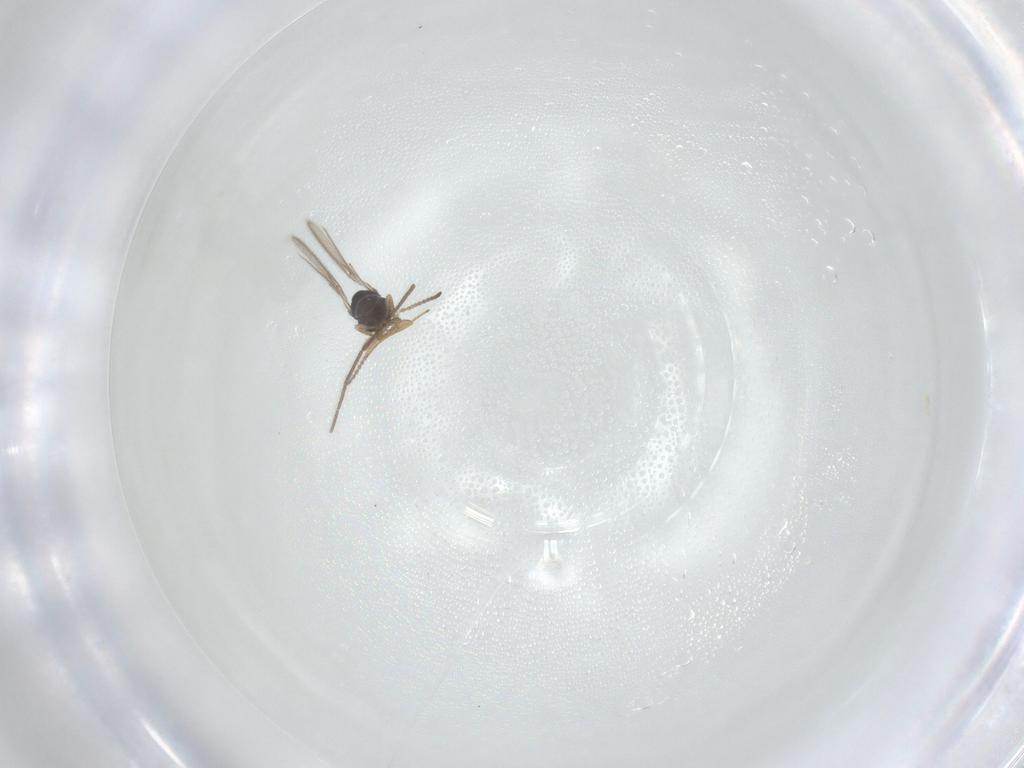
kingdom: Animalia
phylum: Arthropoda
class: Insecta
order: Hymenoptera
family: Scelionidae
